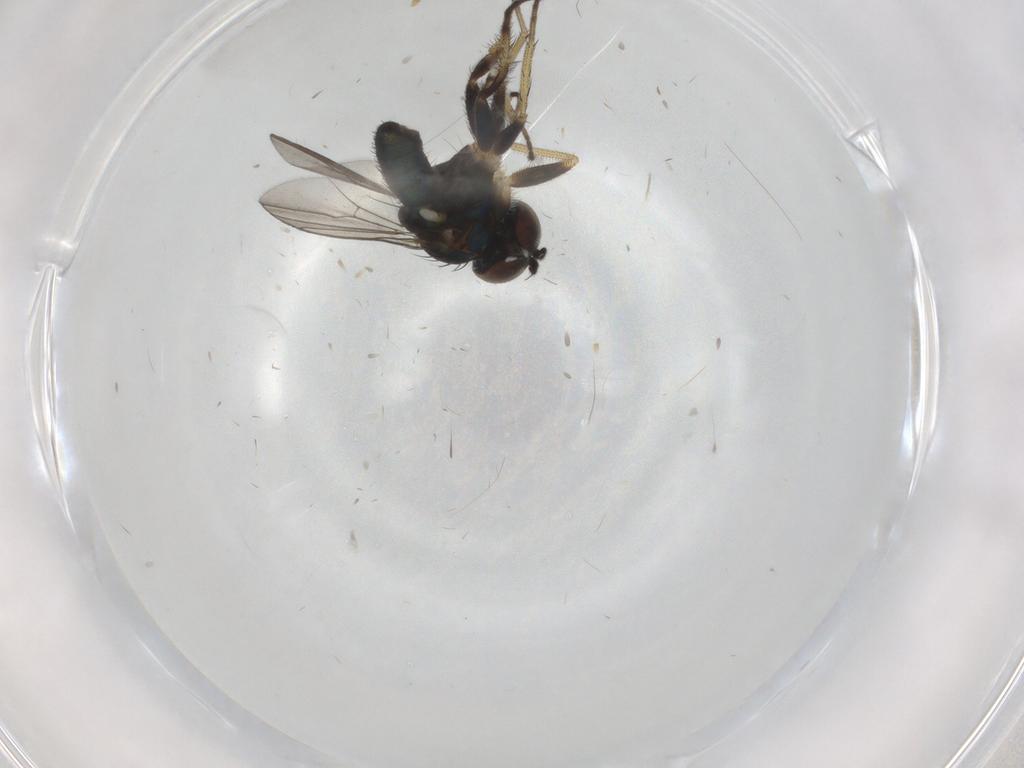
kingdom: Animalia
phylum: Arthropoda
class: Insecta
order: Diptera
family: Dolichopodidae
